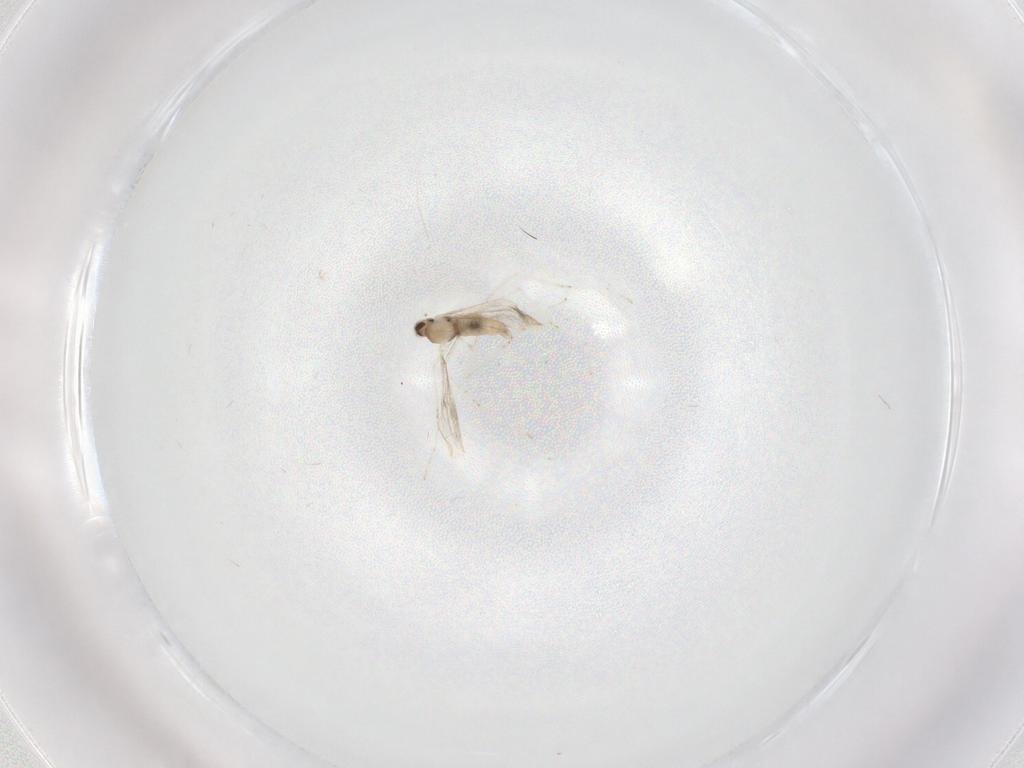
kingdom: Animalia
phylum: Arthropoda
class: Insecta
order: Diptera
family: Cecidomyiidae
